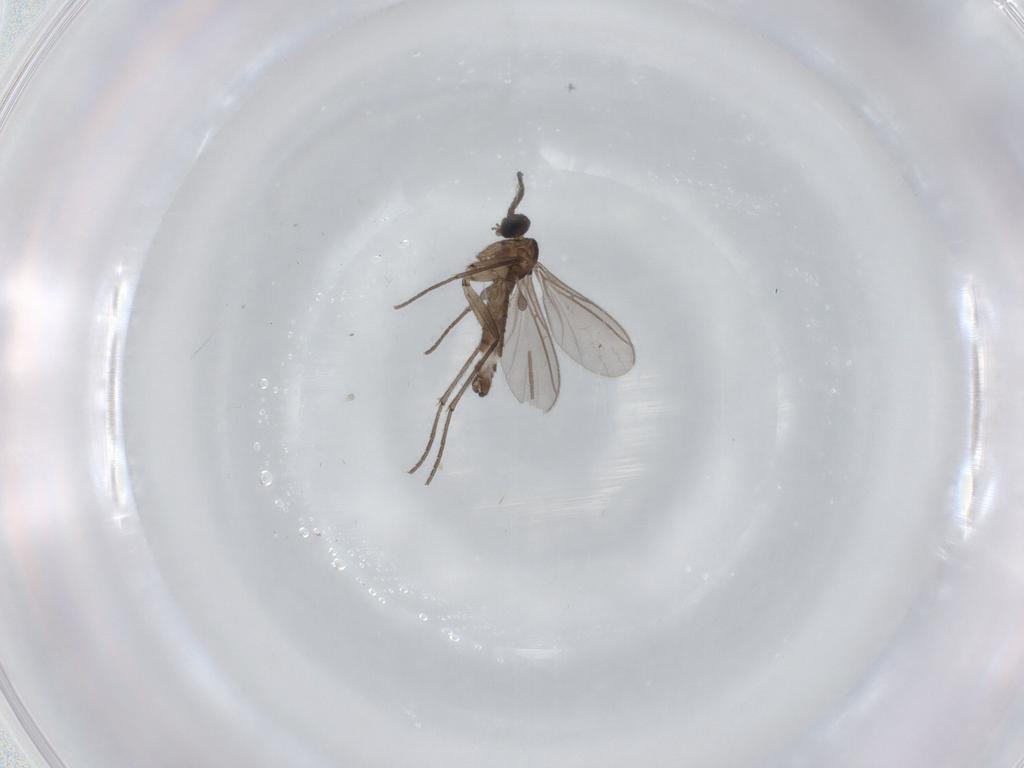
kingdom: Animalia
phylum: Arthropoda
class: Insecta
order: Diptera
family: Sciaridae
